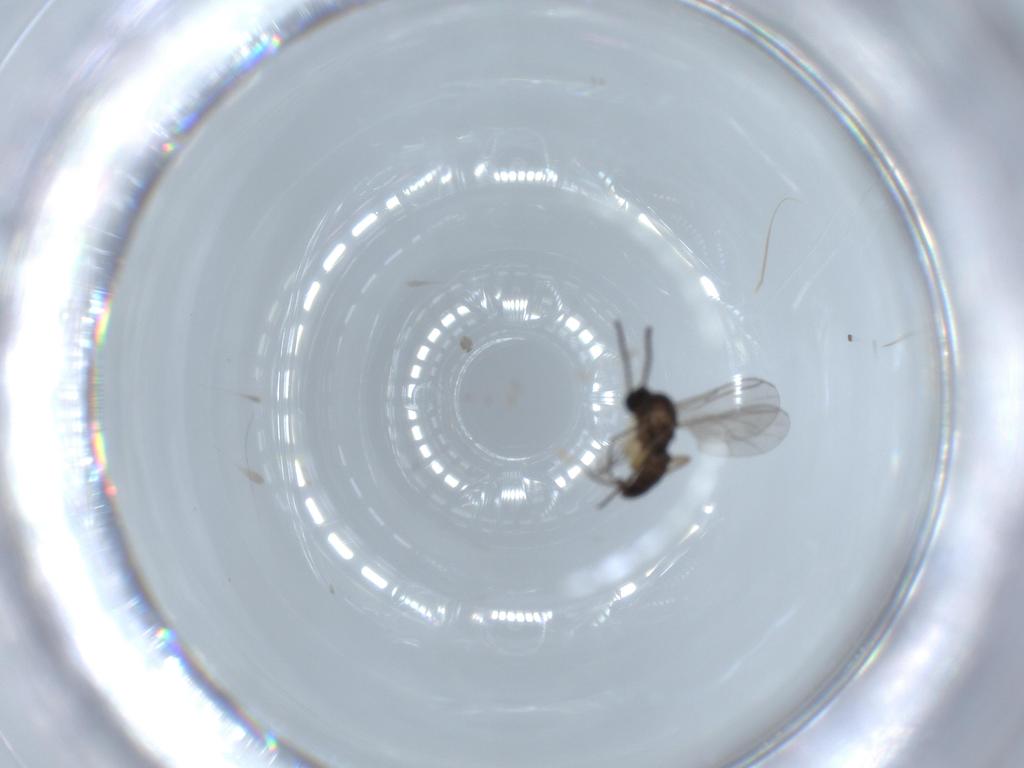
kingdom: Animalia
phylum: Arthropoda
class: Insecta
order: Diptera
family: Sciaridae
